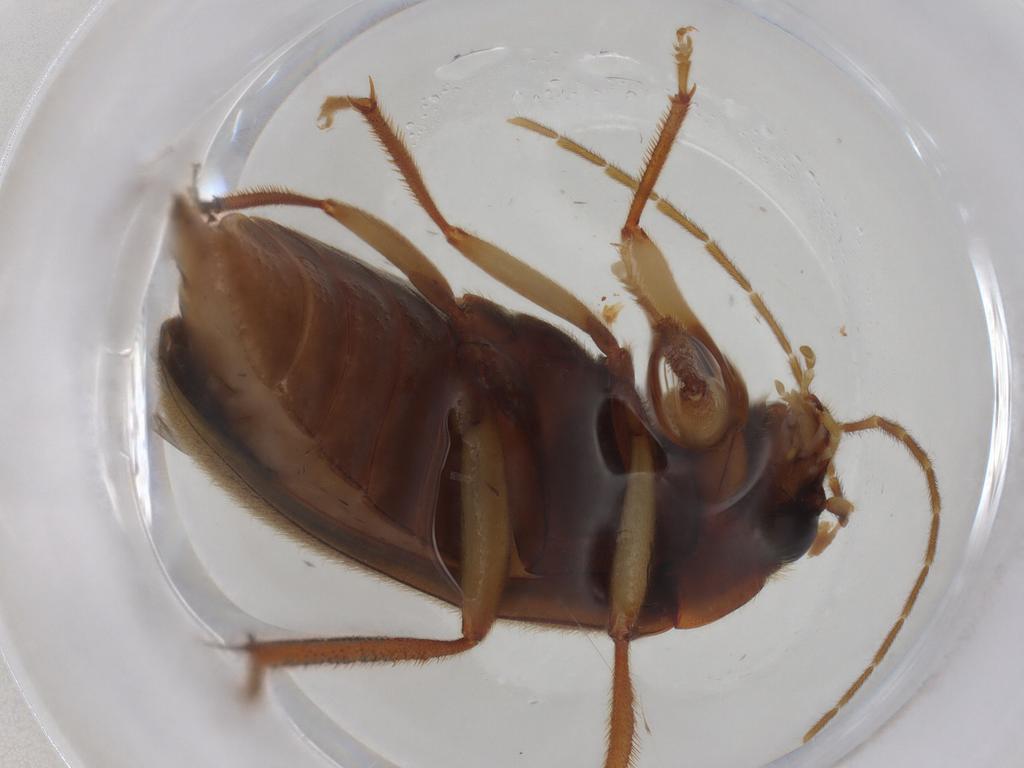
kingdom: Animalia
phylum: Arthropoda
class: Insecta
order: Coleoptera
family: Ptilodactylidae
